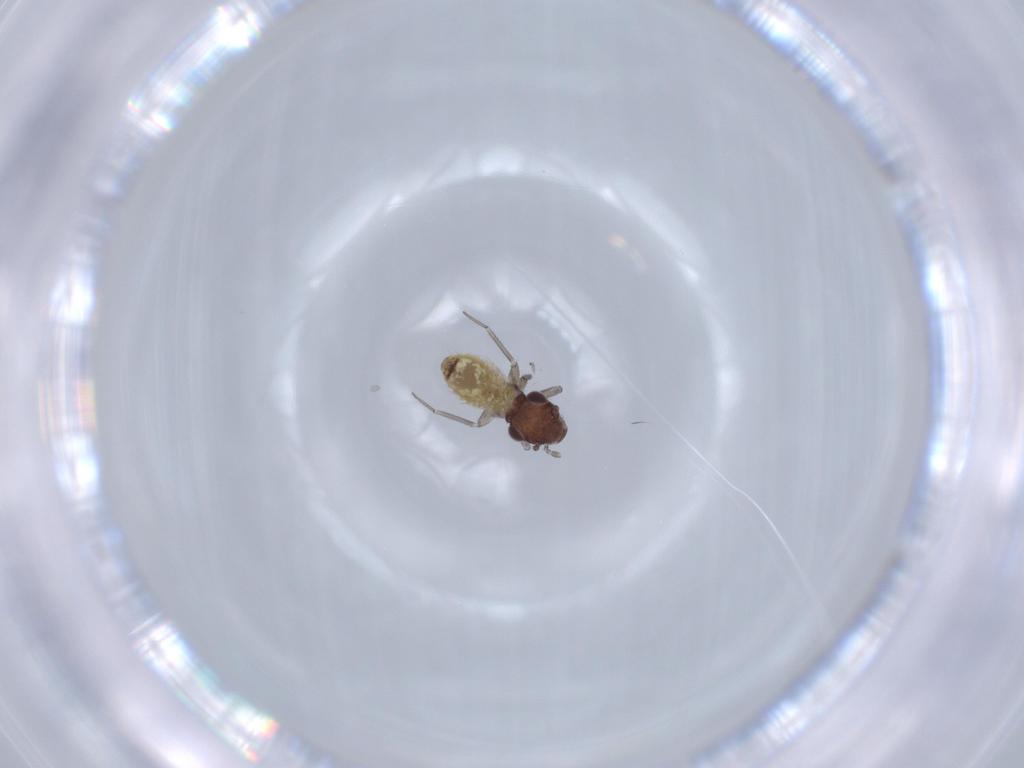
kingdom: Animalia
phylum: Arthropoda
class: Insecta
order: Psocodea
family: Lepidopsocidae
